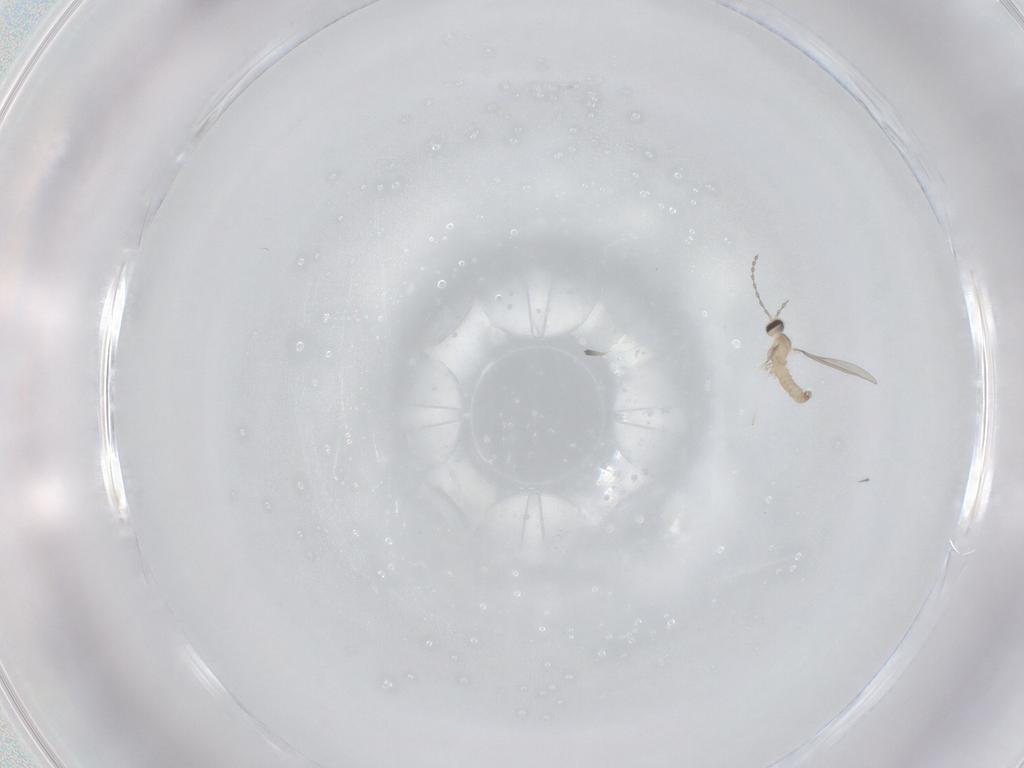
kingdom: Animalia
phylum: Arthropoda
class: Insecta
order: Diptera
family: Cecidomyiidae
